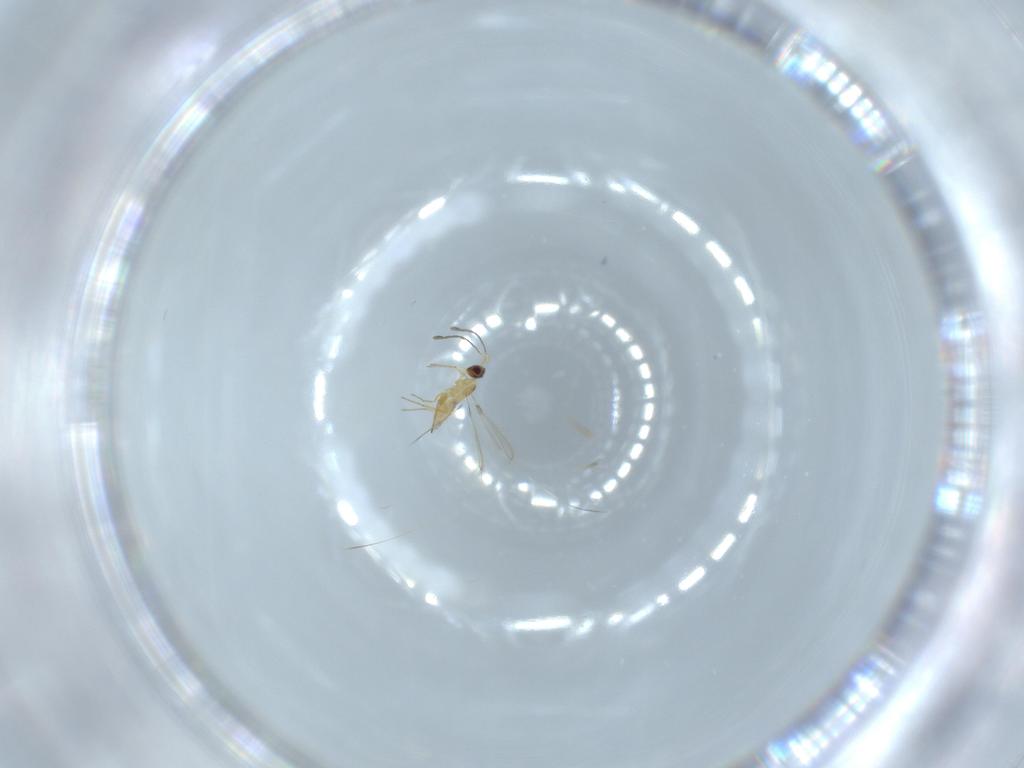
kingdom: Animalia
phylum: Arthropoda
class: Insecta
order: Hymenoptera
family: Mymaridae
